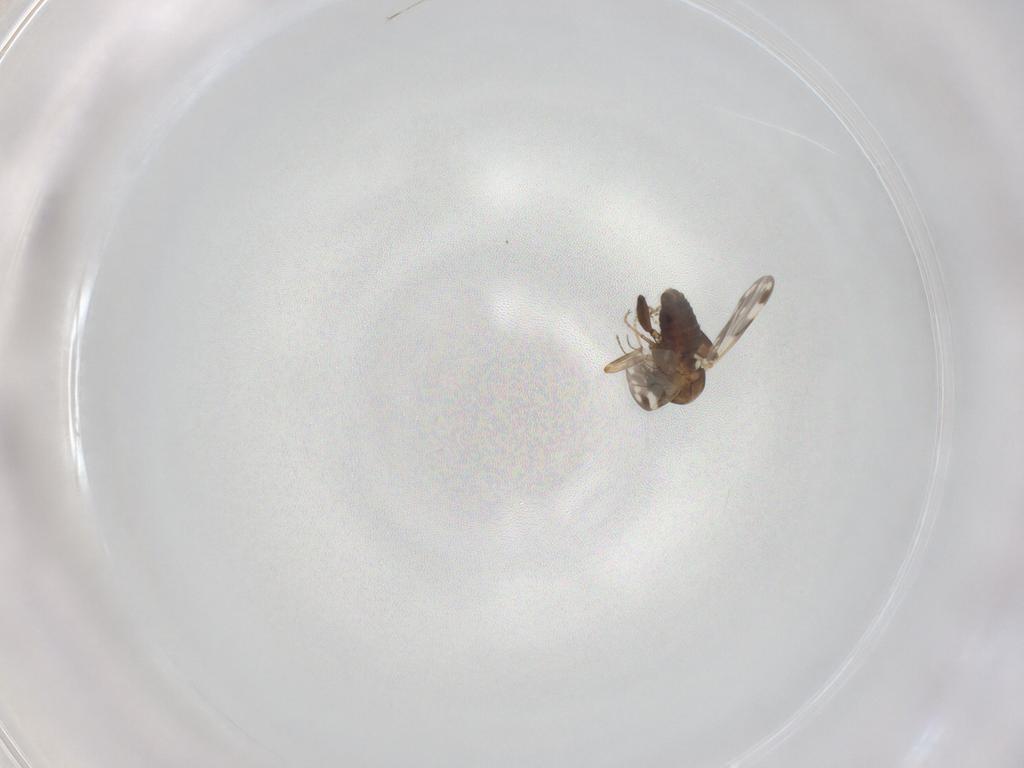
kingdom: Animalia
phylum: Arthropoda
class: Insecta
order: Diptera
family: Ceratopogonidae
